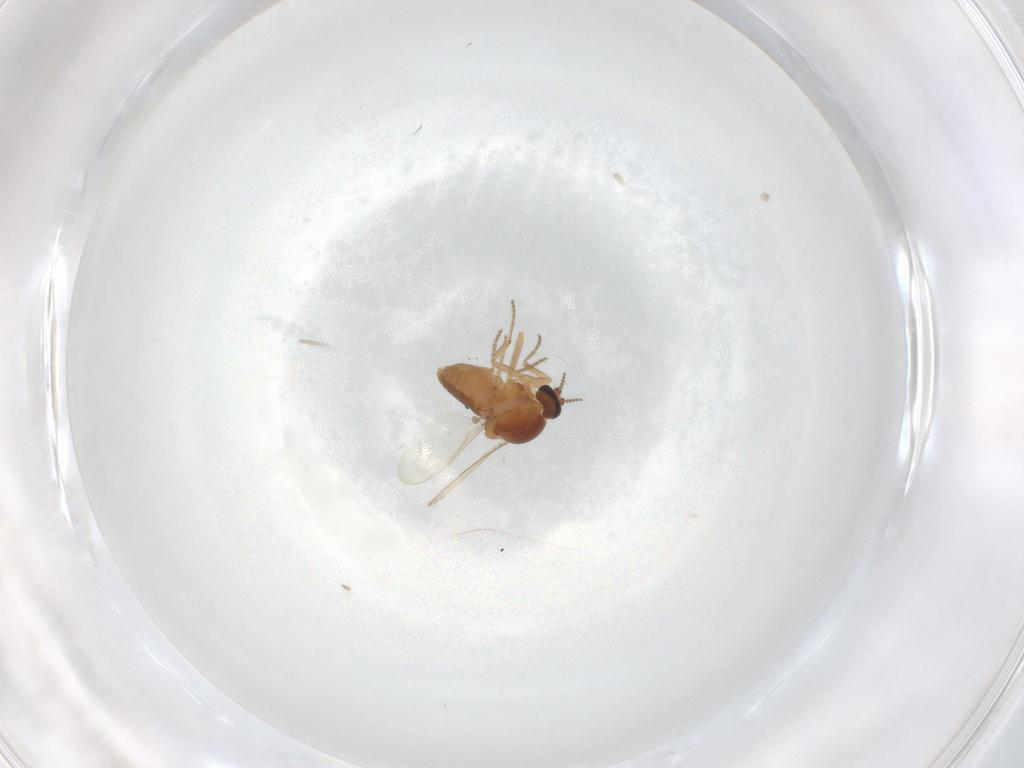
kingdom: Animalia
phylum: Arthropoda
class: Insecta
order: Diptera
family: Ceratopogonidae
